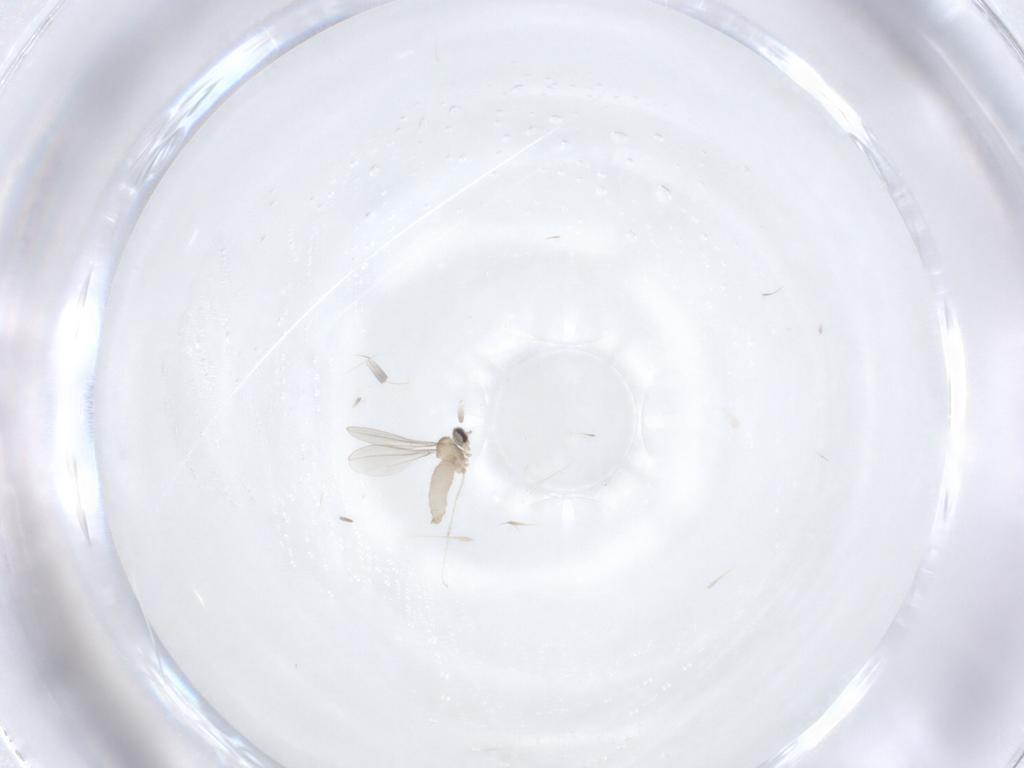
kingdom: Animalia
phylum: Arthropoda
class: Insecta
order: Diptera
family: Cecidomyiidae
